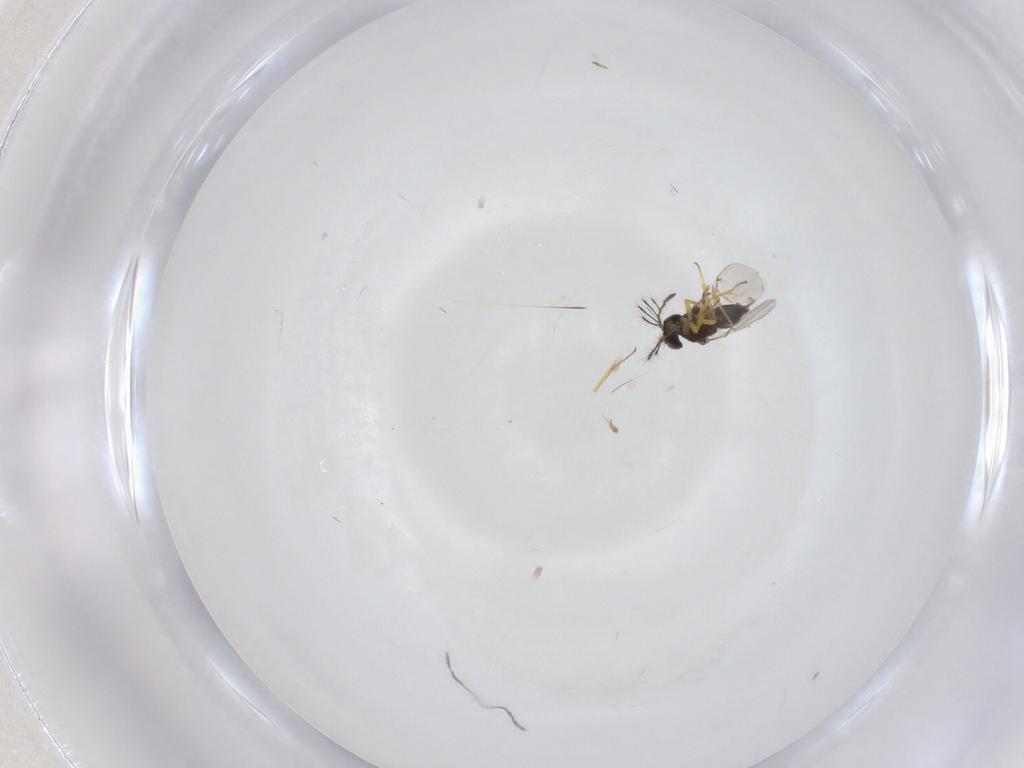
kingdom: Animalia
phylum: Arthropoda
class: Insecta
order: Hymenoptera
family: Encyrtidae
